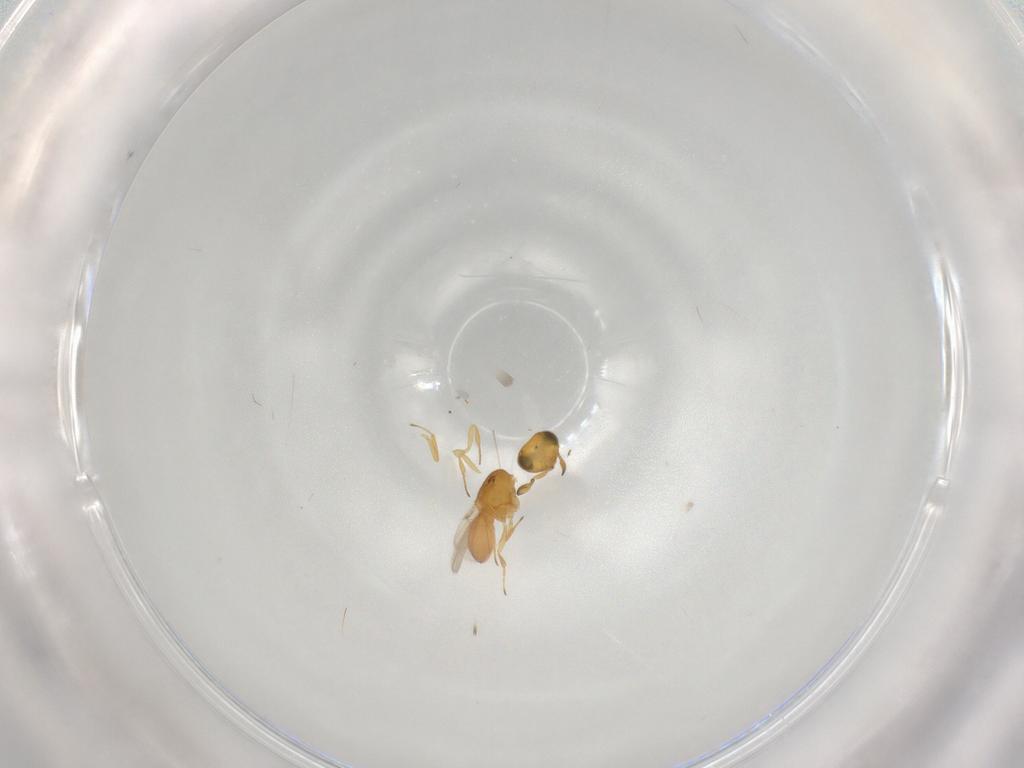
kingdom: Animalia
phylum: Arthropoda
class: Insecta
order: Hymenoptera
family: Scelionidae
